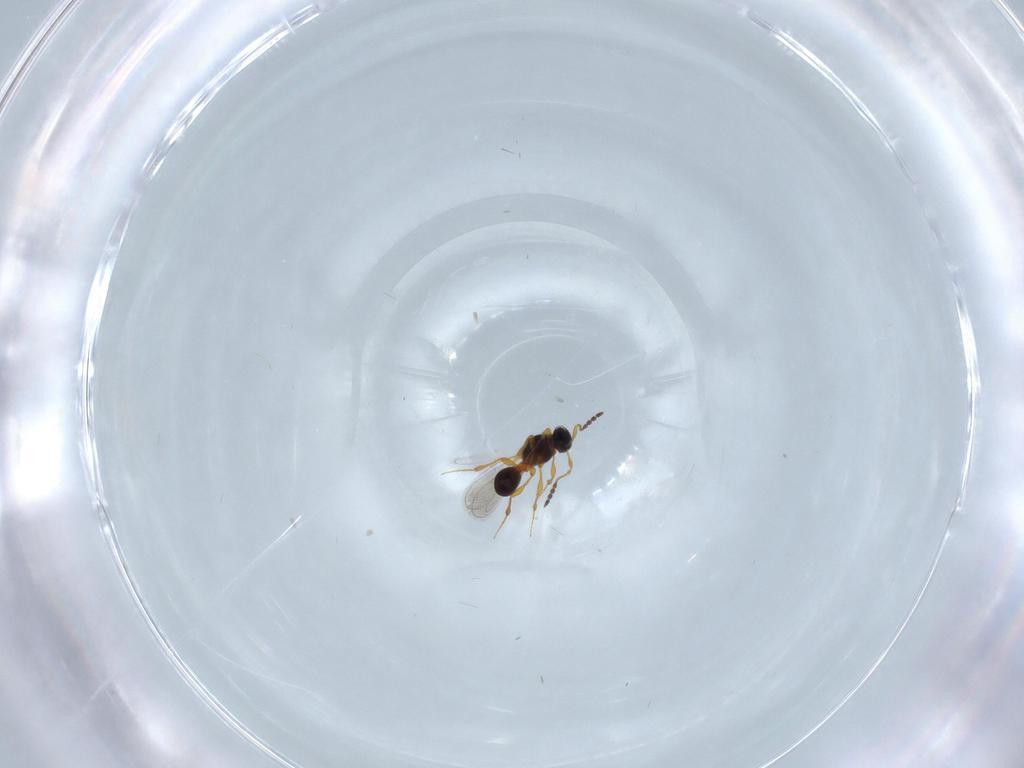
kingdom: Animalia
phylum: Arthropoda
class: Insecta
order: Hymenoptera
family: Platygastridae
